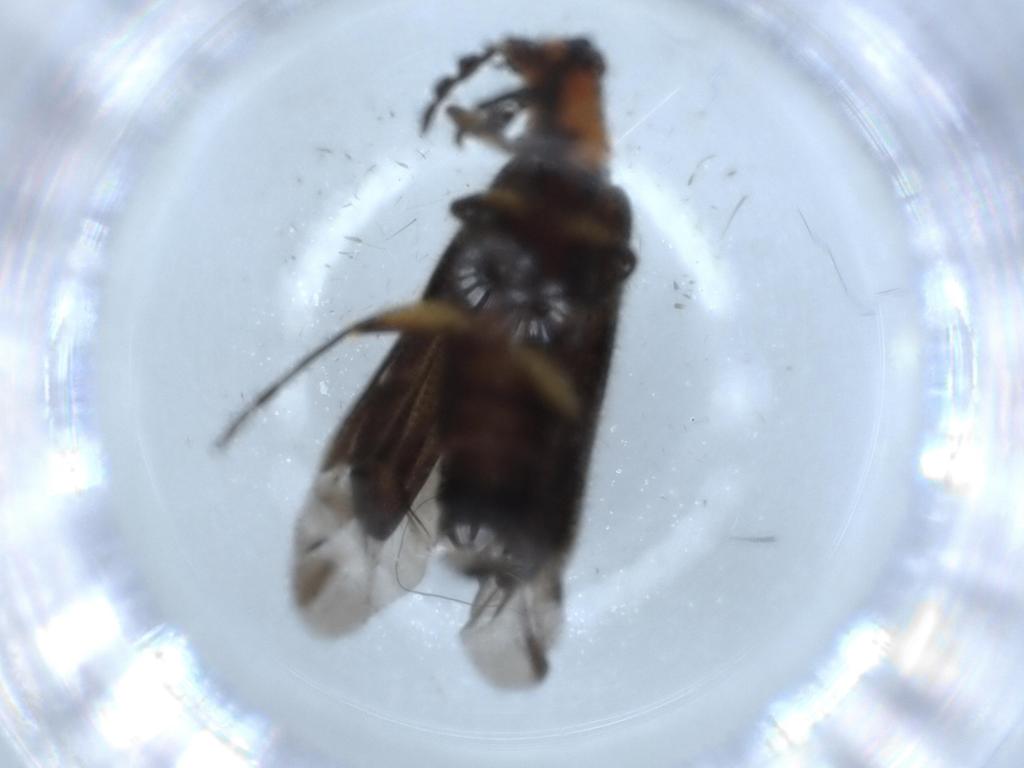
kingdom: Animalia
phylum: Arthropoda
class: Insecta
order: Coleoptera
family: Cleridae
